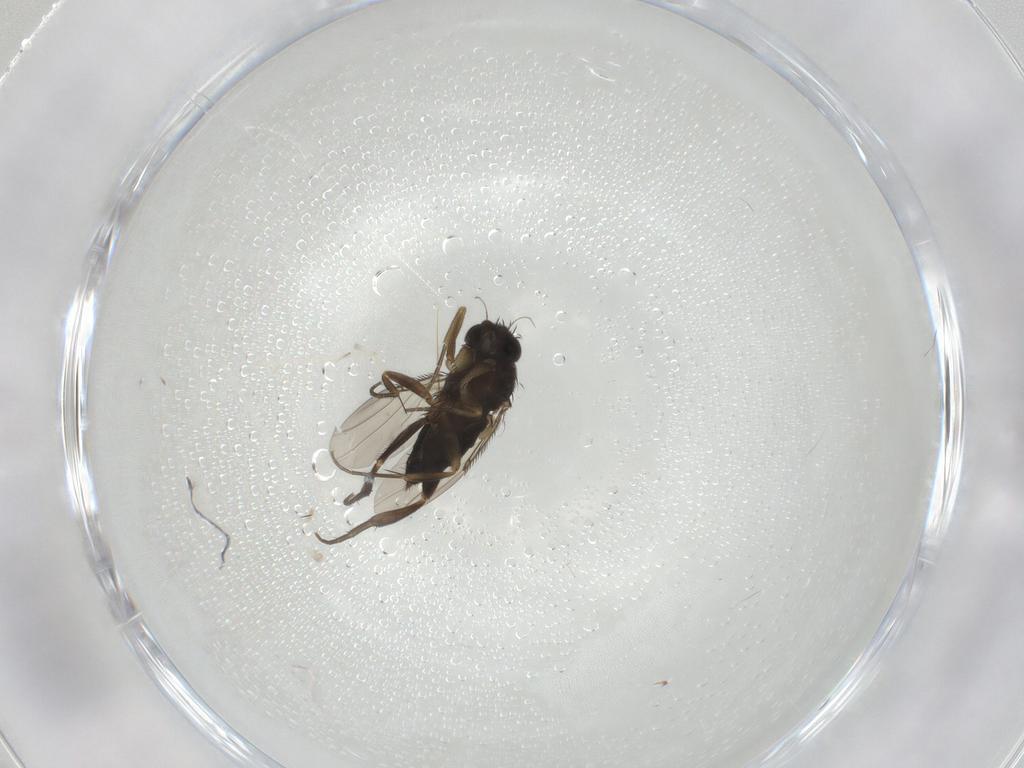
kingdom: Animalia
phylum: Arthropoda
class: Insecta
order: Diptera
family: Phoridae
